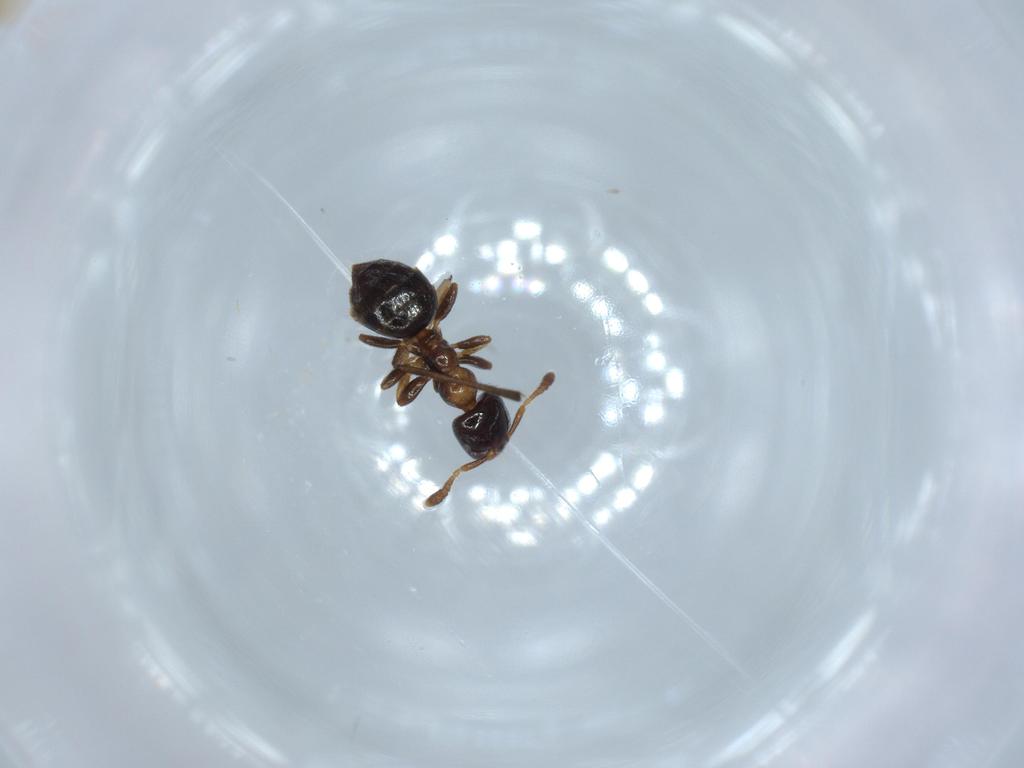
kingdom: Animalia
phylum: Arthropoda
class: Insecta
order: Hymenoptera
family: Formicidae
